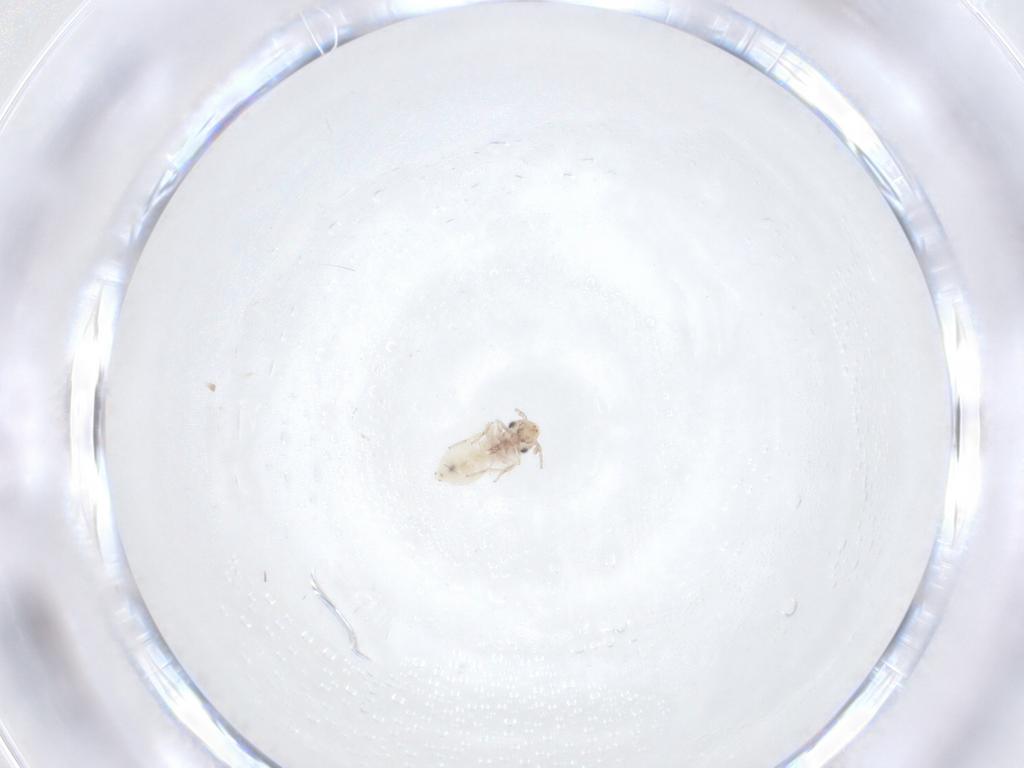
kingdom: Animalia
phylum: Arthropoda
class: Insecta
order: Psocodea
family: Lepidopsocidae
